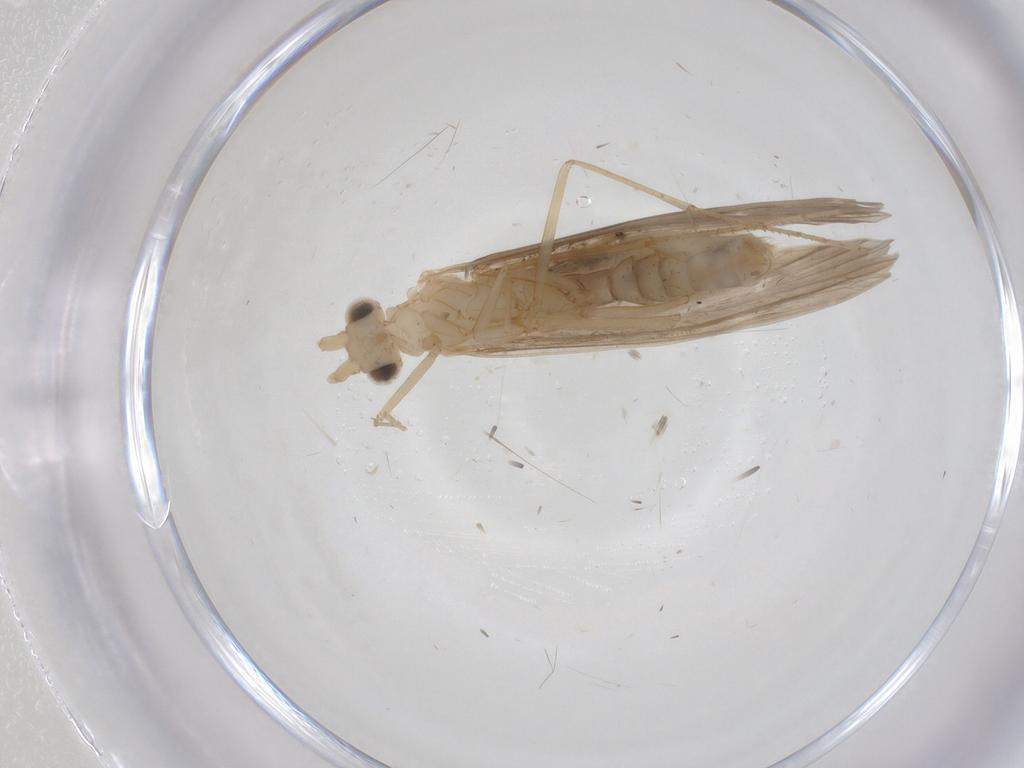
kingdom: Animalia
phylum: Arthropoda
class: Insecta
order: Trichoptera
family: Leptoceridae
